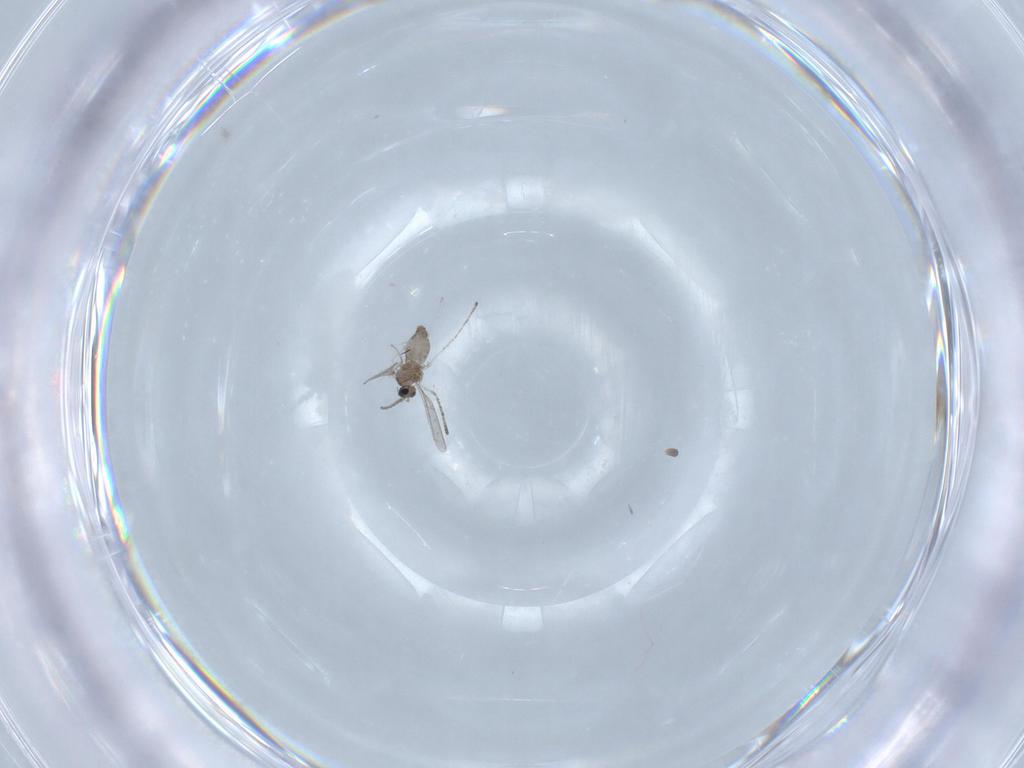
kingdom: Animalia
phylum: Arthropoda
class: Insecta
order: Diptera
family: Cecidomyiidae
